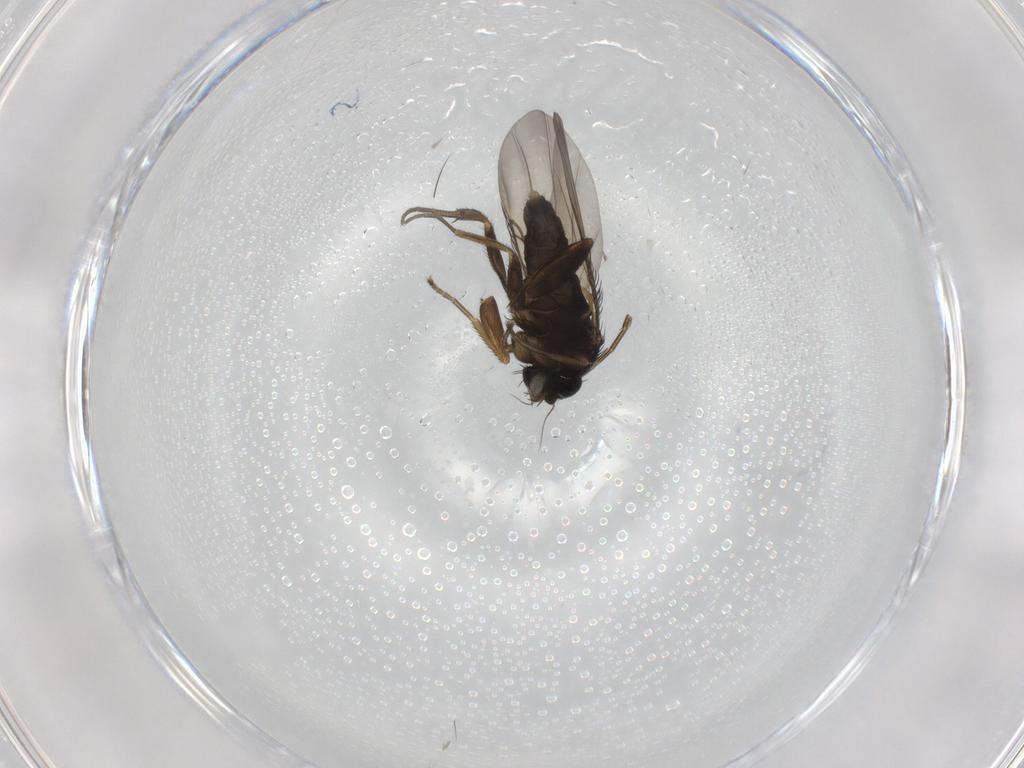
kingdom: Animalia
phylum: Arthropoda
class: Insecta
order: Diptera
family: Phoridae
